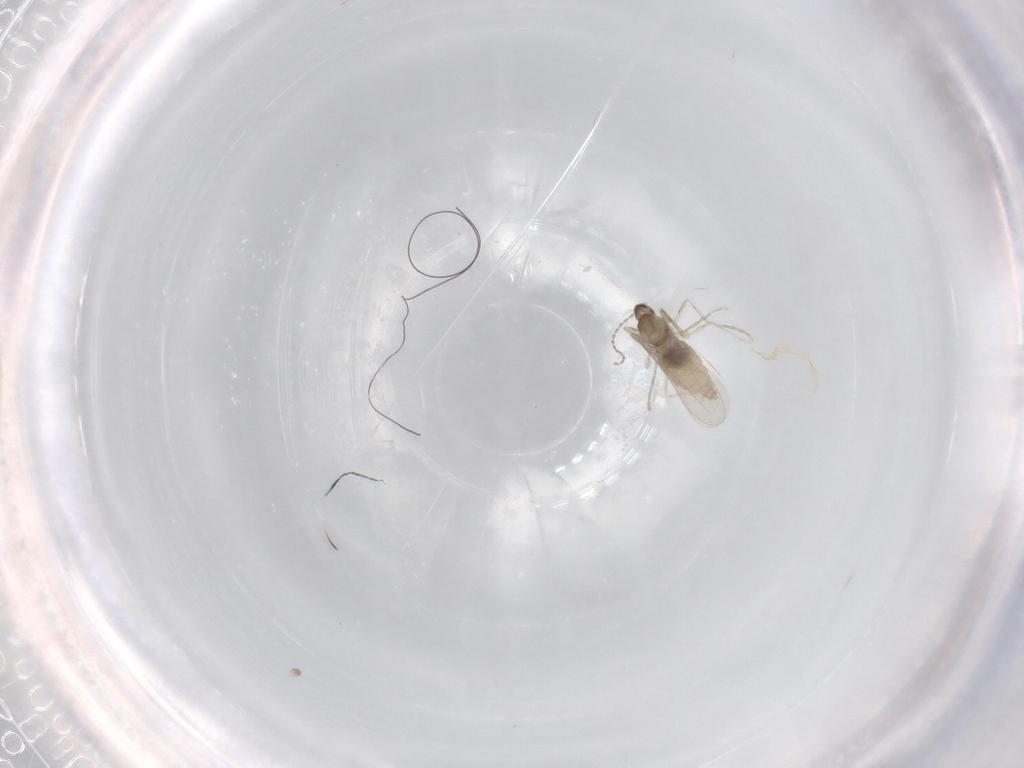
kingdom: Animalia
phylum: Arthropoda
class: Insecta
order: Diptera
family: Cecidomyiidae
